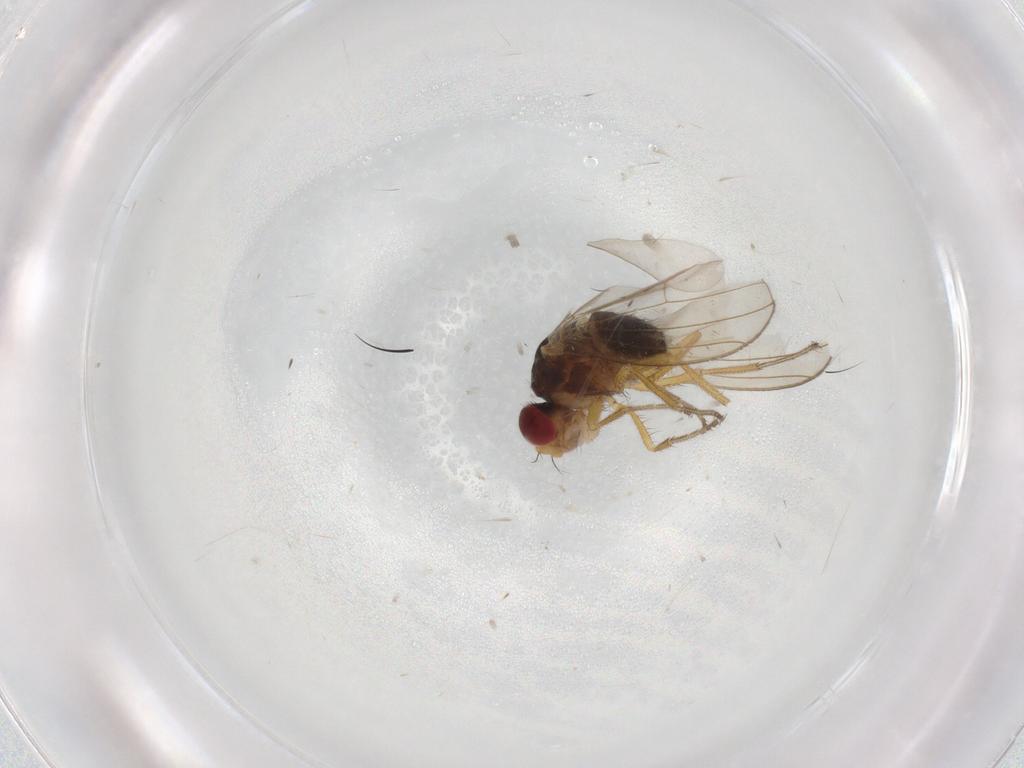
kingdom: Animalia
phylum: Arthropoda
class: Insecta
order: Diptera
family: Drosophilidae
